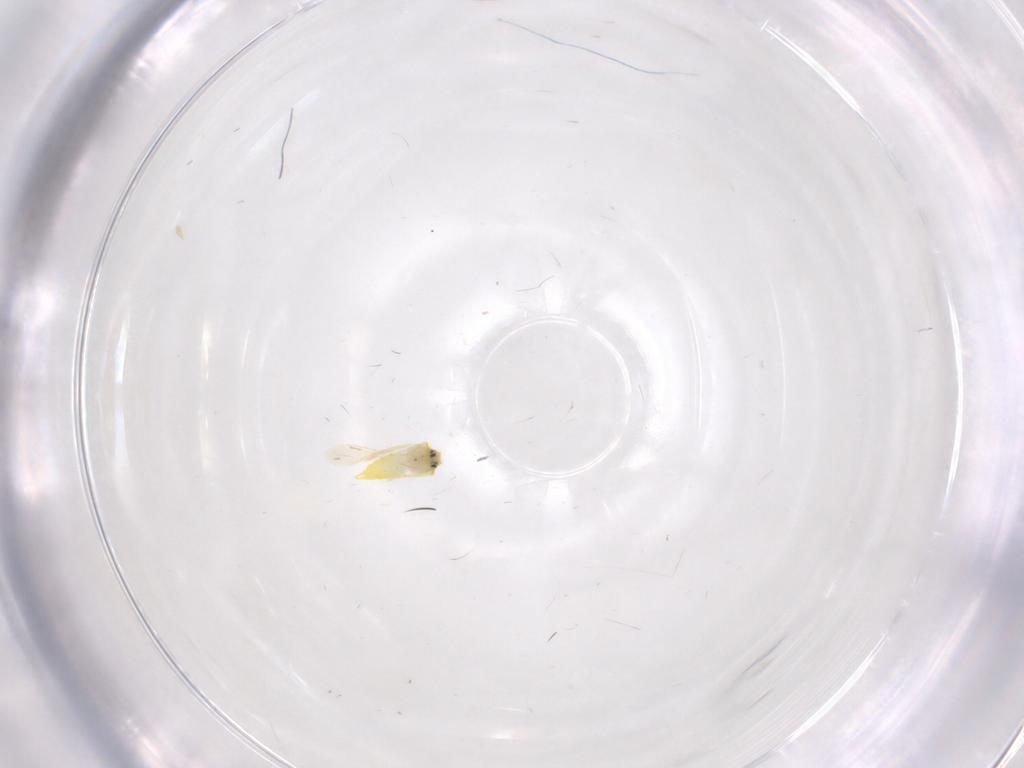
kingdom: Animalia
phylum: Arthropoda
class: Insecta
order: Hemiptera
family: Aleyrodidae
